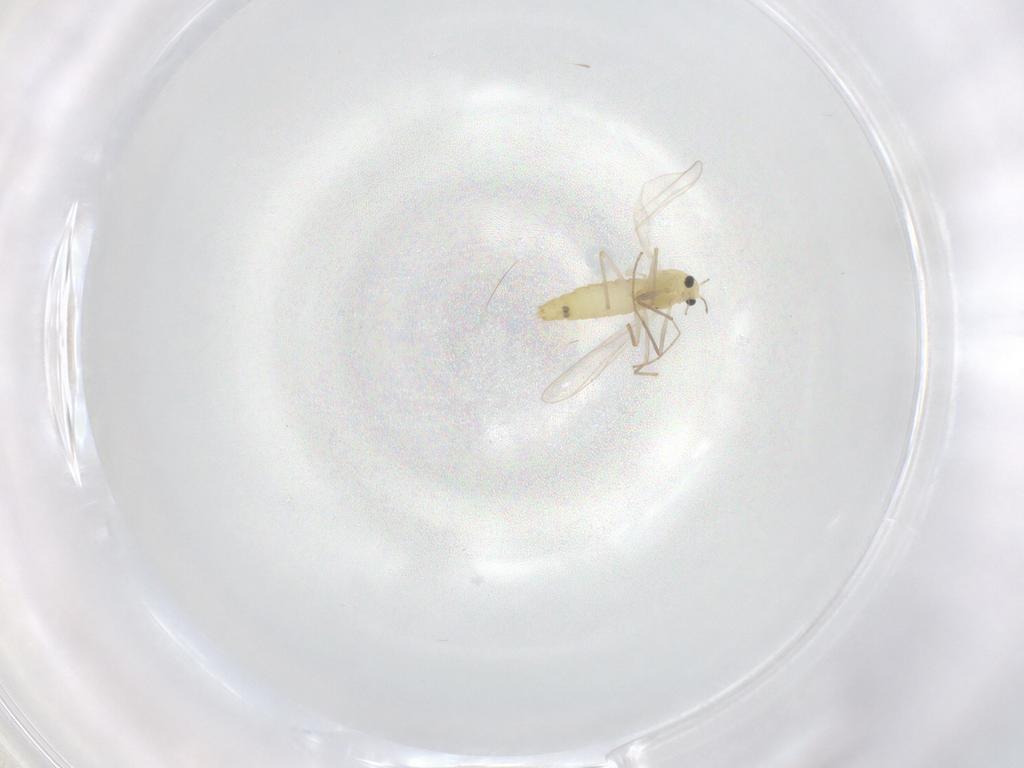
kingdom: Animalia
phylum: Arthropoda
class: Insecta
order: Diptera
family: Chironomidae
